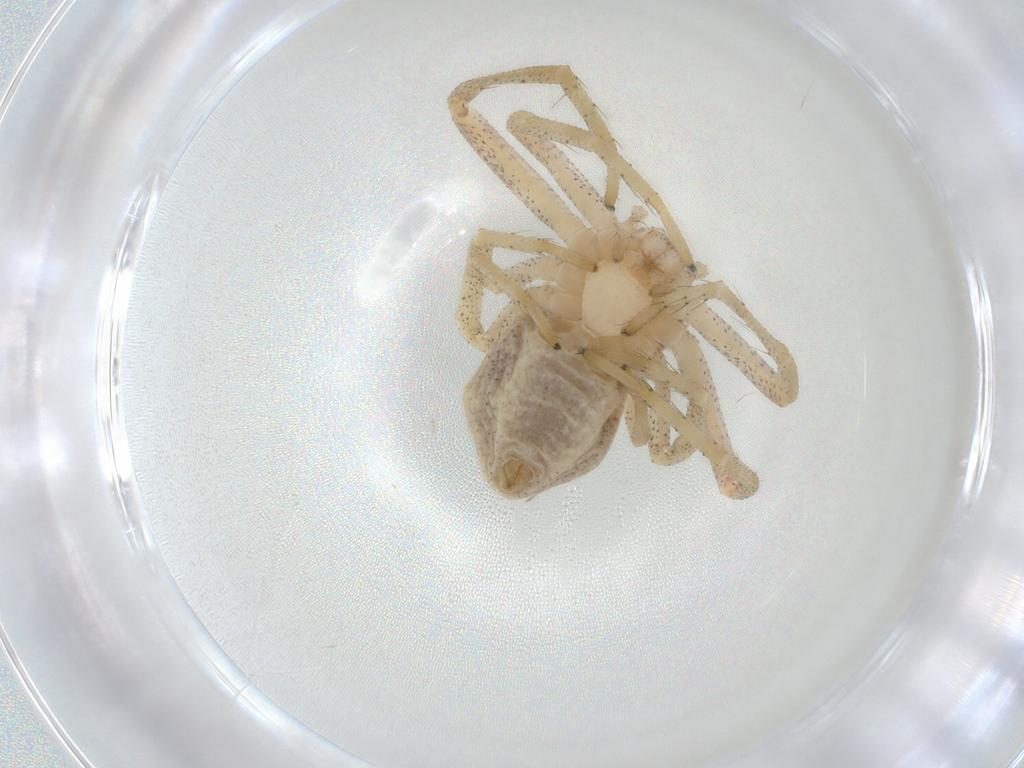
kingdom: Animalia
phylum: Arthropoda
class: Arachnida
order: Araneae
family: Philodromidae
